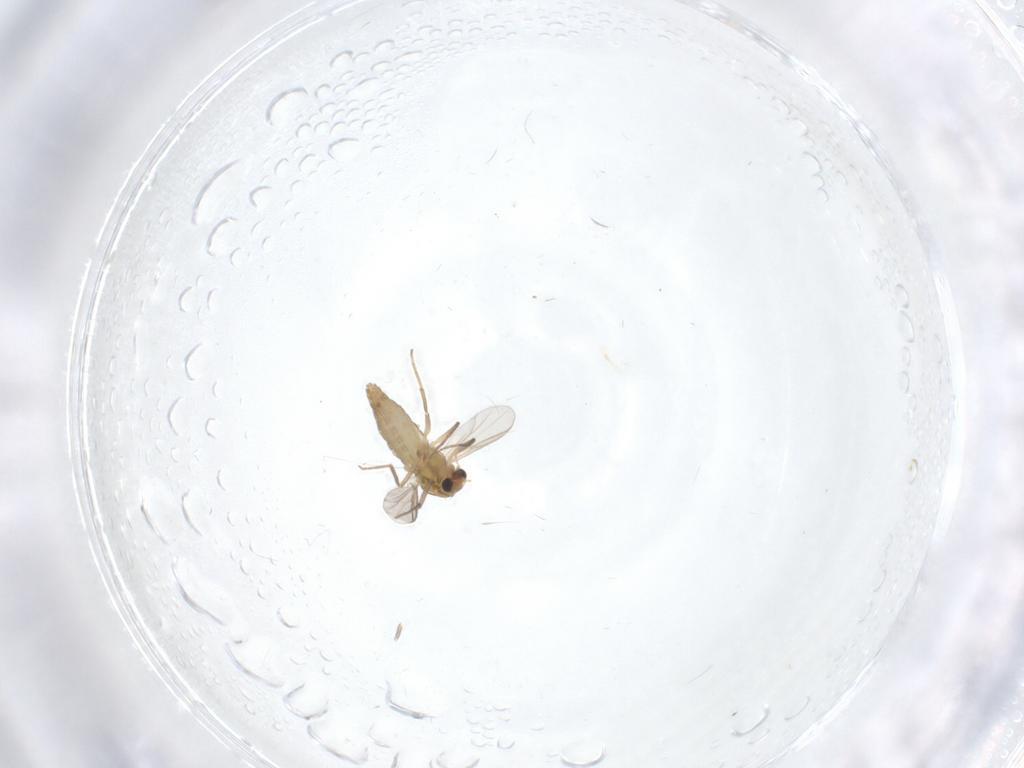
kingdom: Animalia
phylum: Arthropoda
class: Insecta
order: Diptera
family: Chironomidae
